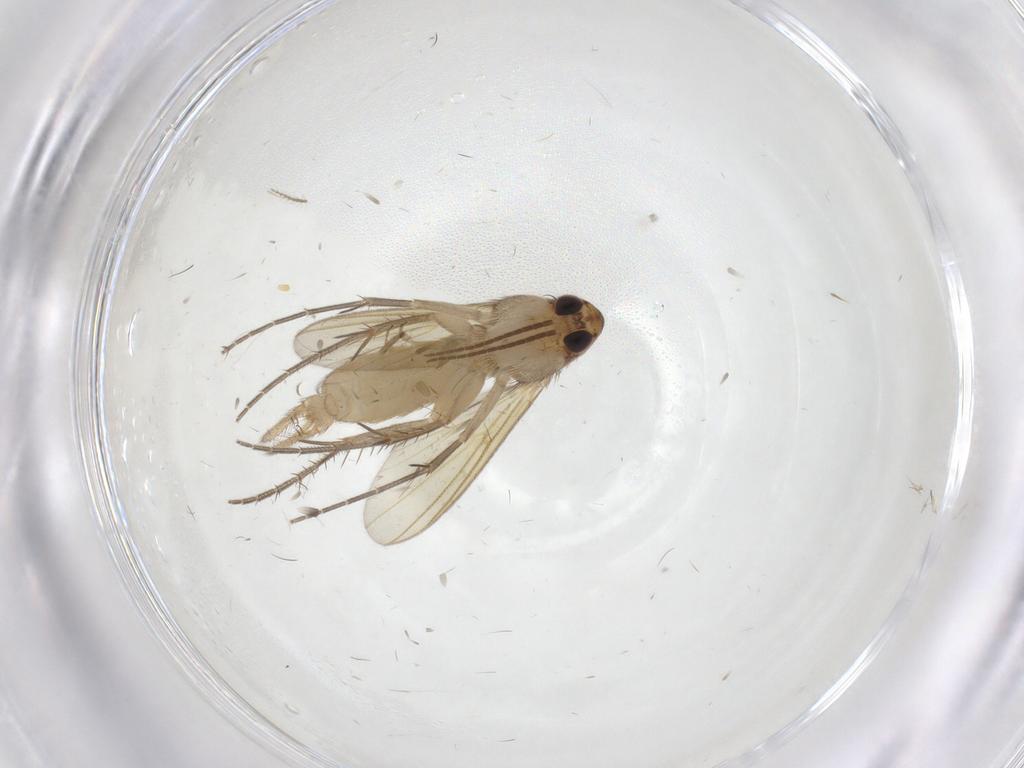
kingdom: Animalia
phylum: Arthropoda
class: Insecta
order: Diptera
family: Mycetophilidae
